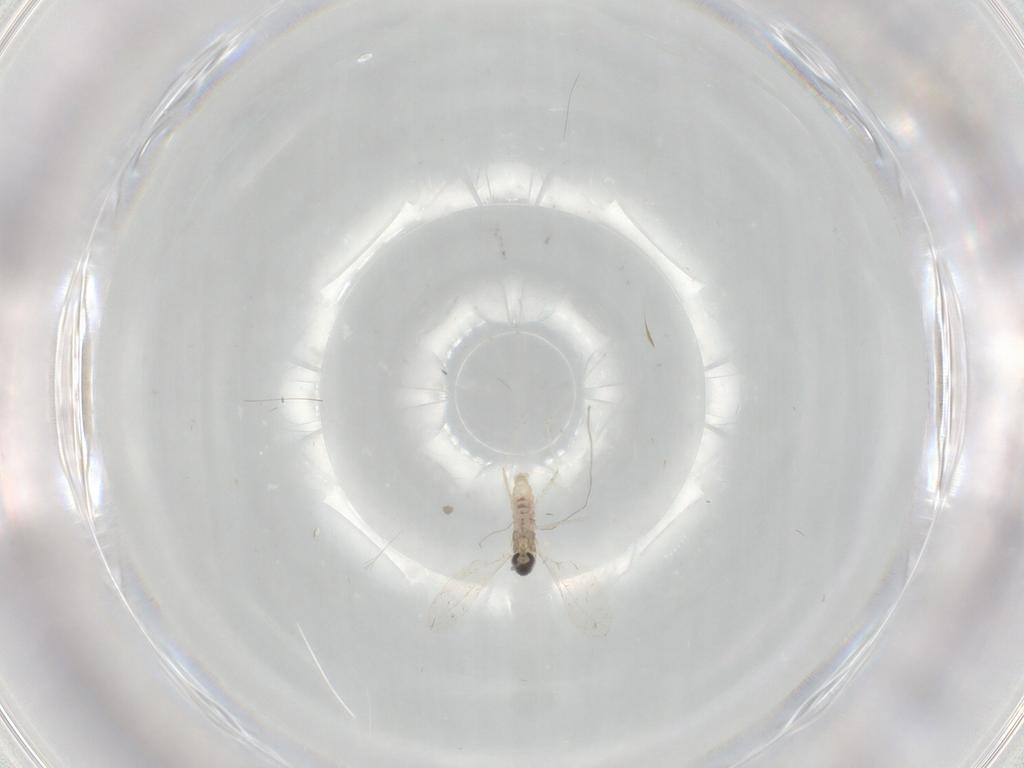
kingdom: Animalia
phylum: Arthropoda
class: Insecta
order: Diptera
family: Cecidomyiidae
